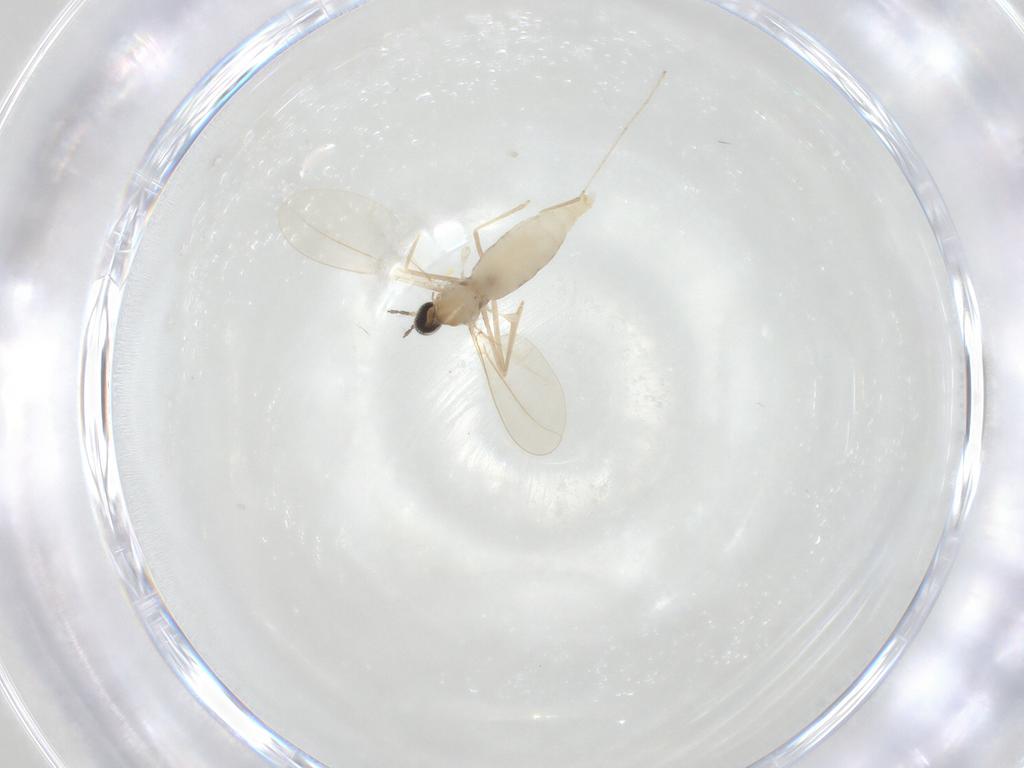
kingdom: Animalia
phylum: Arthropoda
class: Insecta
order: Diptera
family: Cecidomyiidae
